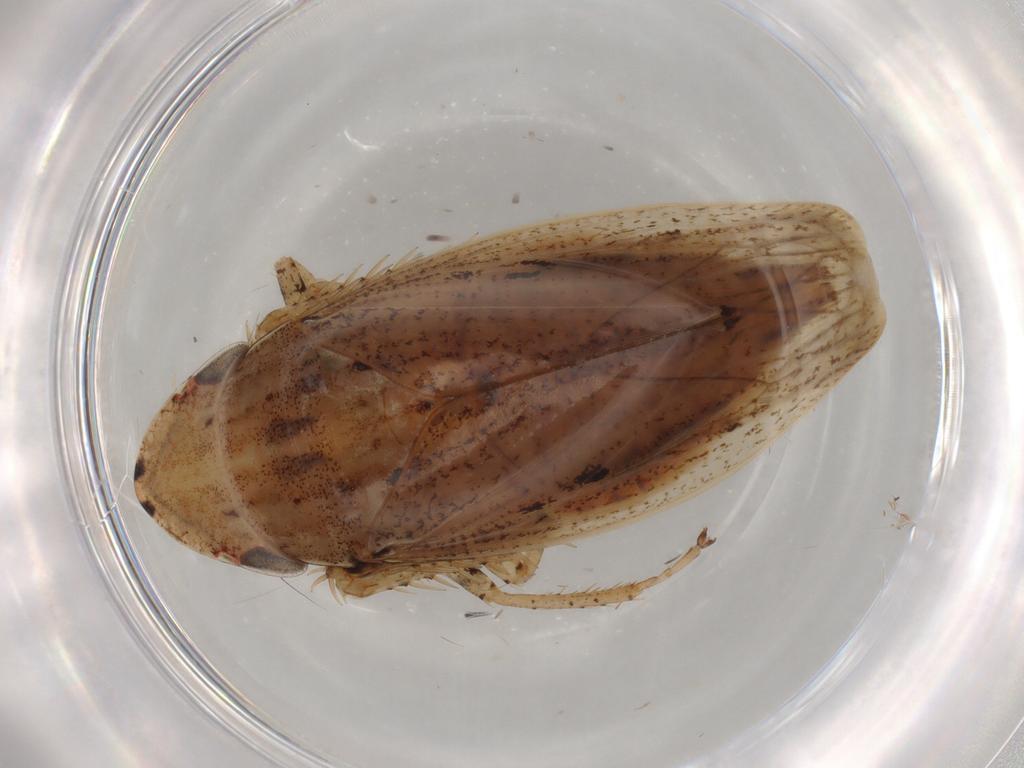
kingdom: Animalia
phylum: Arthropoda
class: Insecta
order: Hemiptera
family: Cicadellidae
